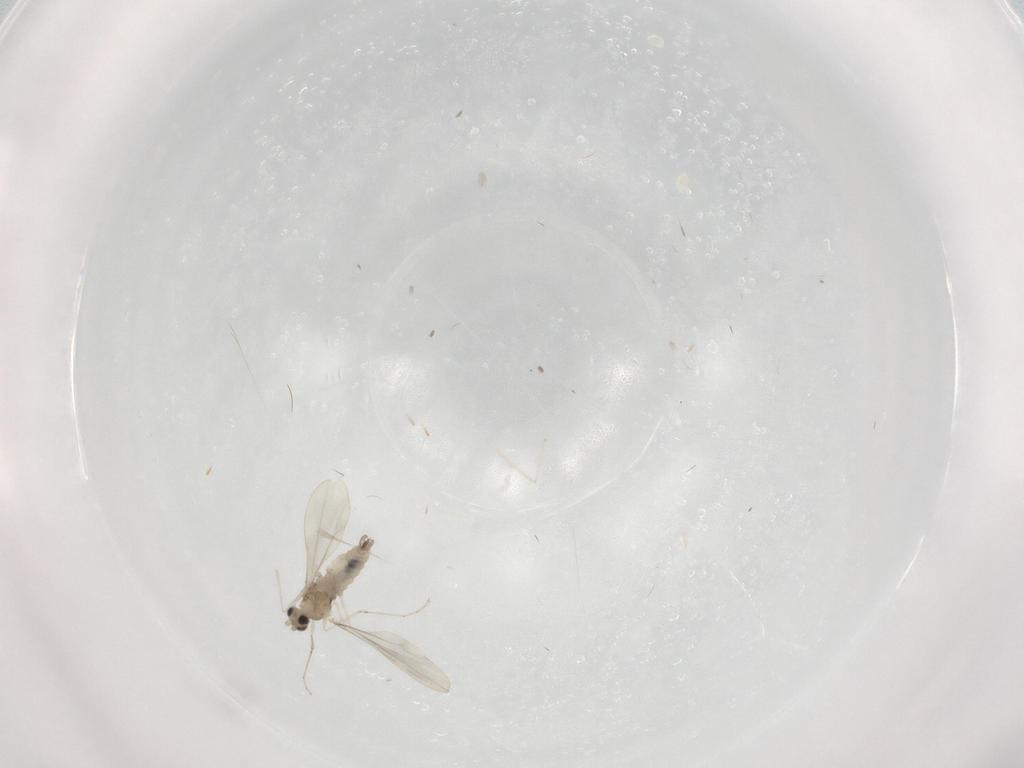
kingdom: Animalia
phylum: Arthropoda
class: Insecta
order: Diptera
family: Cecidomyiidae
